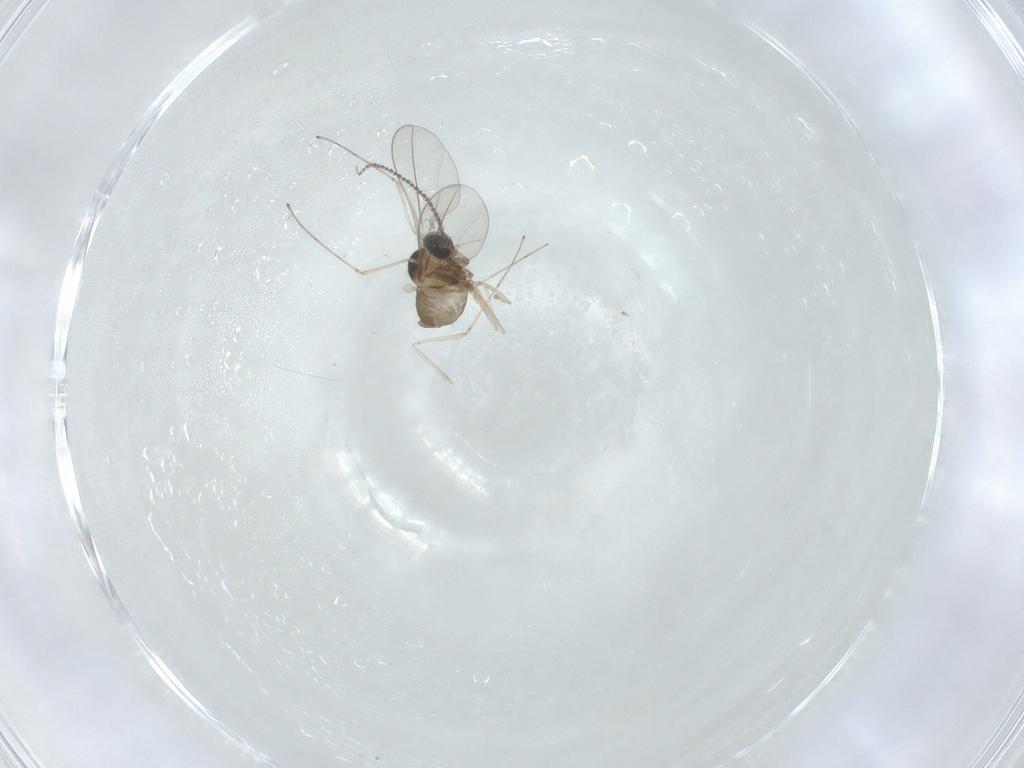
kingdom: Animalia
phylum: Arthropoda
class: Insecta
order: Diptera
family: Cecidomyiidae
